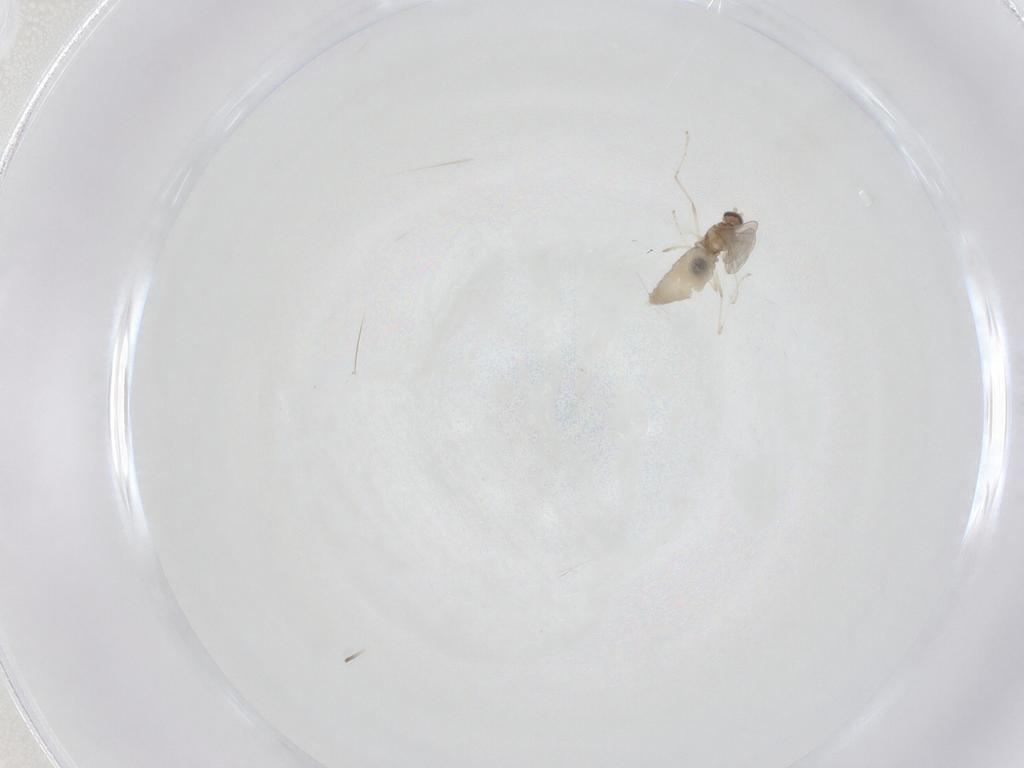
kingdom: Animalia
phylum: Arthropoda
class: Insecta
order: Diptera
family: Cecidomyiidae
